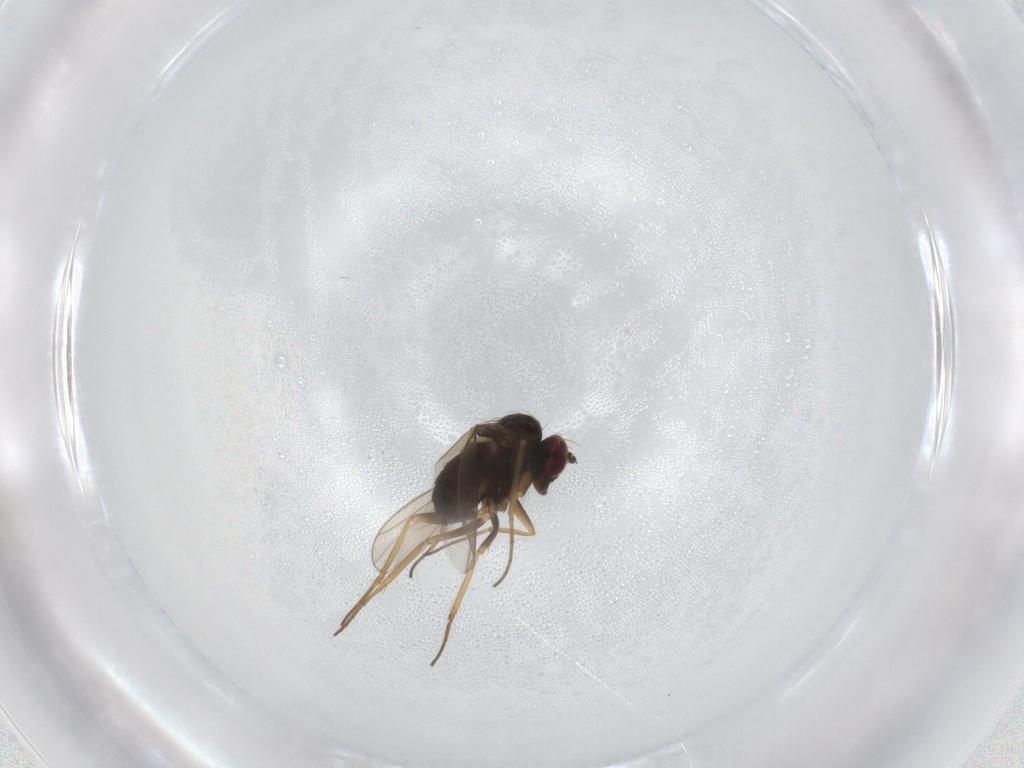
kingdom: Animalia
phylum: Arthropoda
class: Insecta
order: Diptera
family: Dolichopodidae
